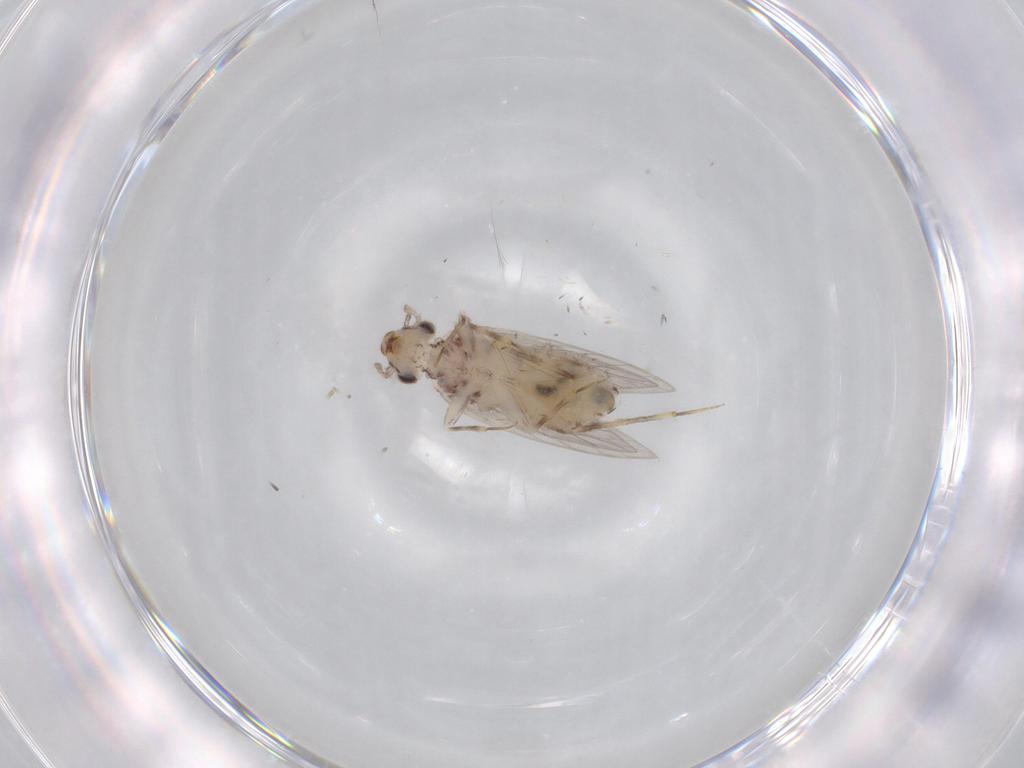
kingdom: Animalia
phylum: Arthropoda
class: Insecta
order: Psocodea
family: Lepidopsocidae
